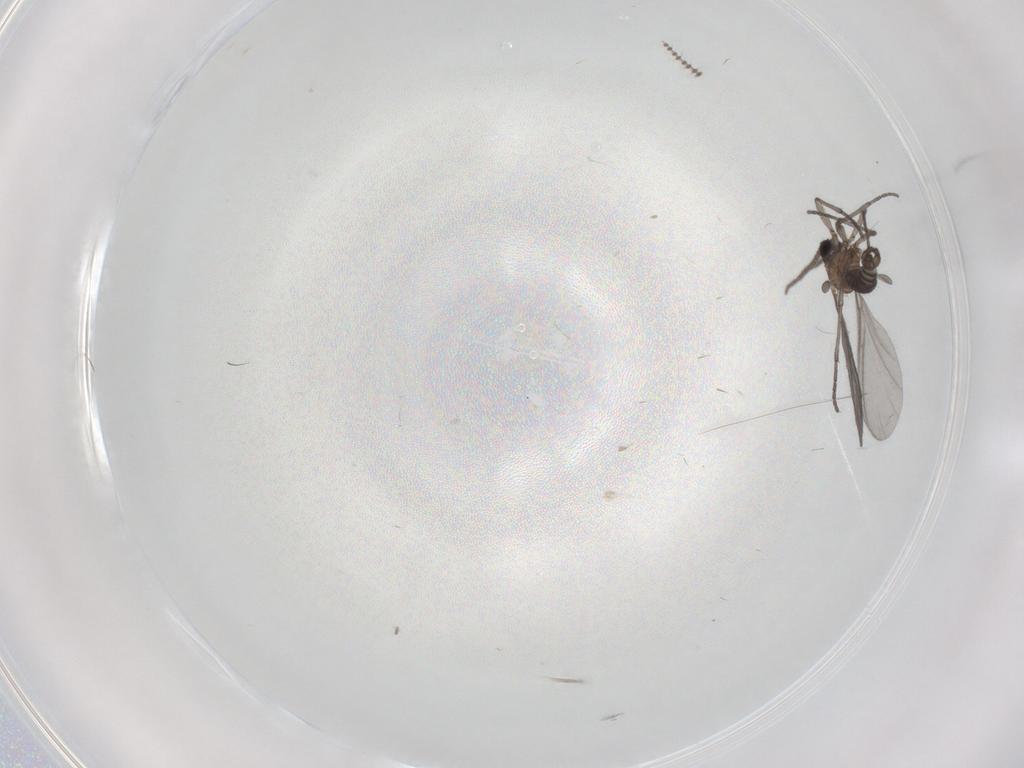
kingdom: Animalia
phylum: Arthropoda
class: Insecta
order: Diptera
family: Sciaridae
